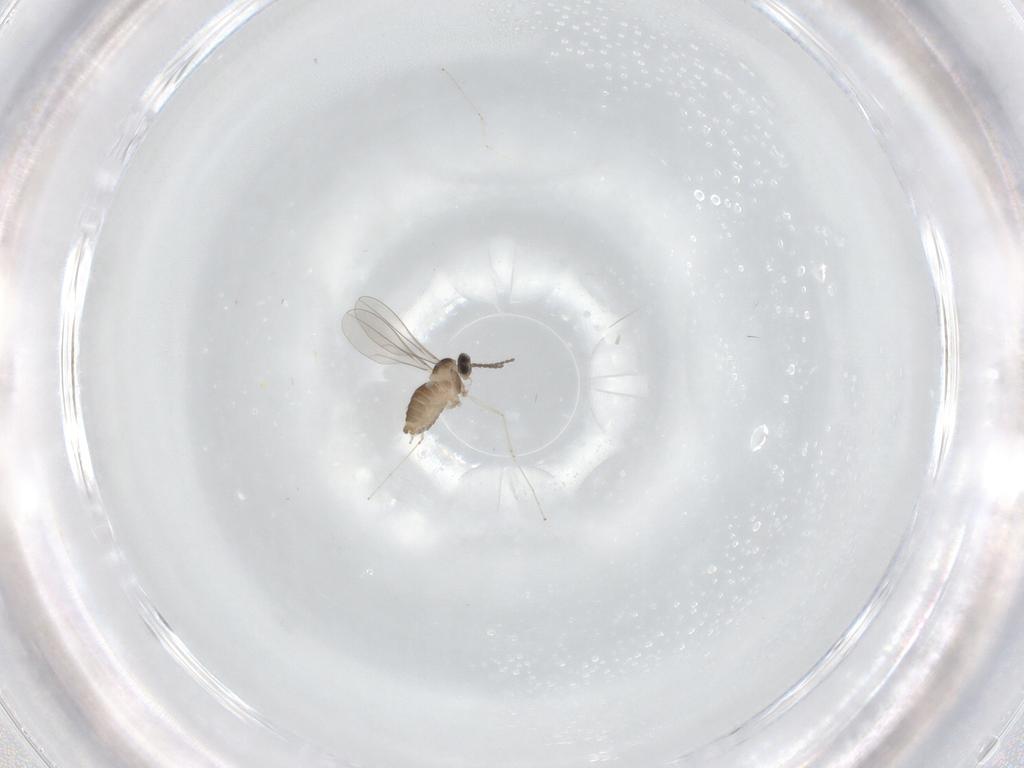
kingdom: Animalia
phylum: Arthropoda
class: Insecta
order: Diptera
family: Cecidomyiidae
